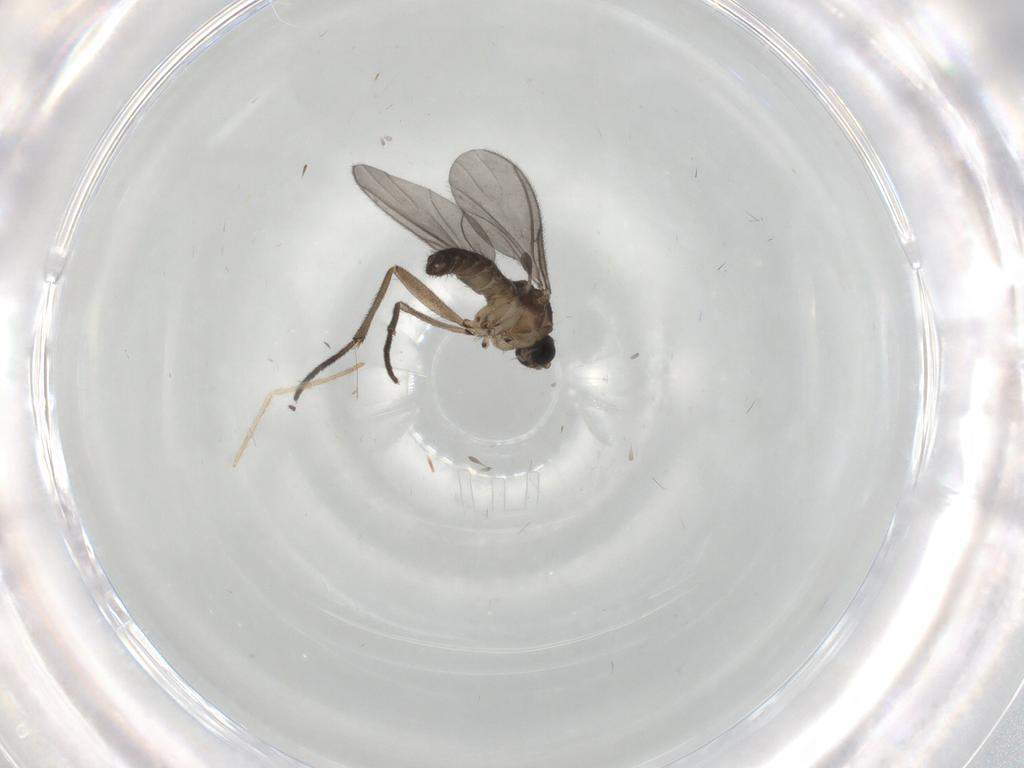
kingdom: Animalia
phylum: Arthropoda
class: Insecta
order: Diptera
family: Sciaridae
